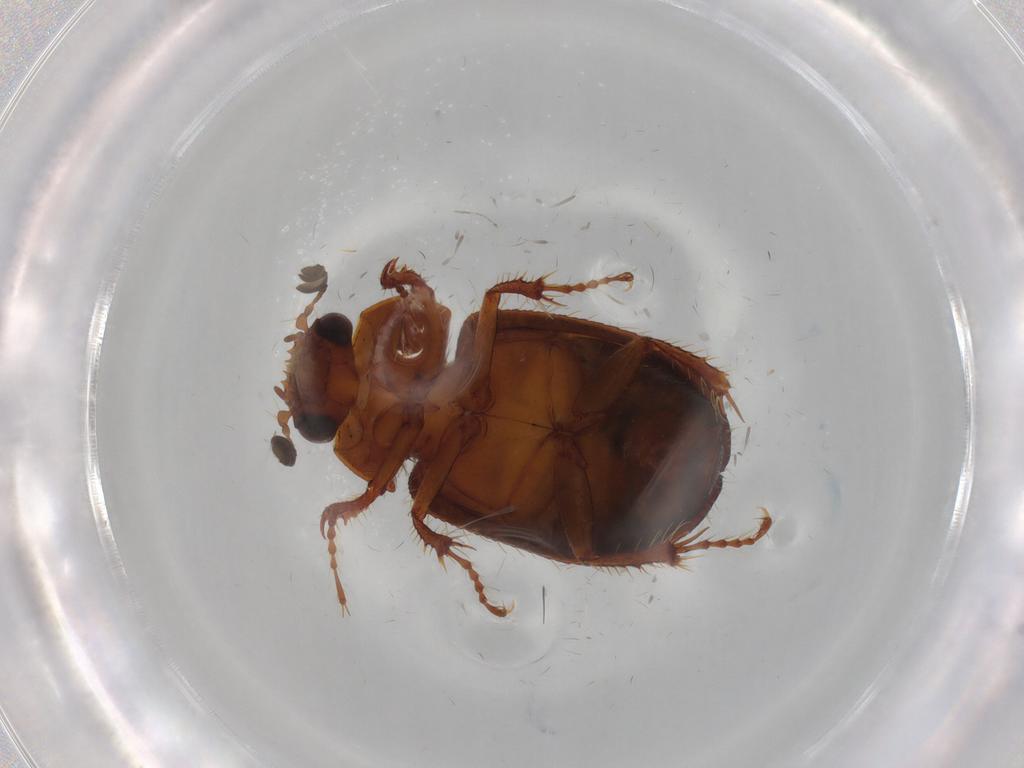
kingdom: Animalia
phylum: Arthropoda
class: Insecta
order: Coleoptera
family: Hybosoridae
